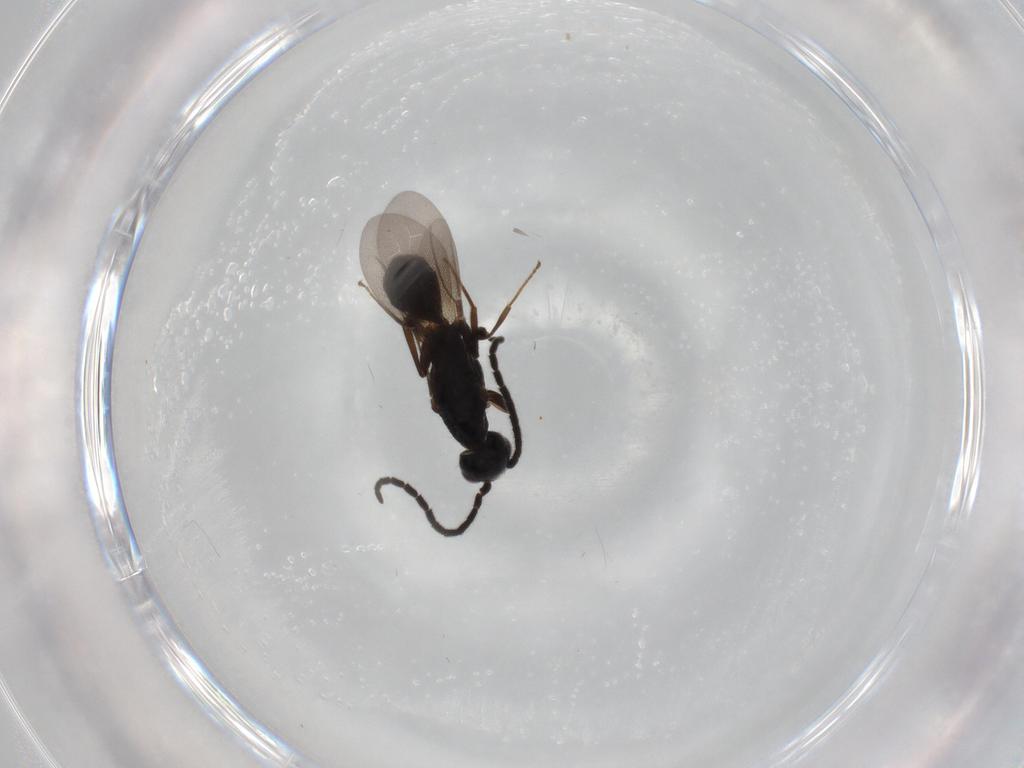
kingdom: Animalia
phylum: Arthropoda
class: Insecta
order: Hymenoptera
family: Bethylidae
